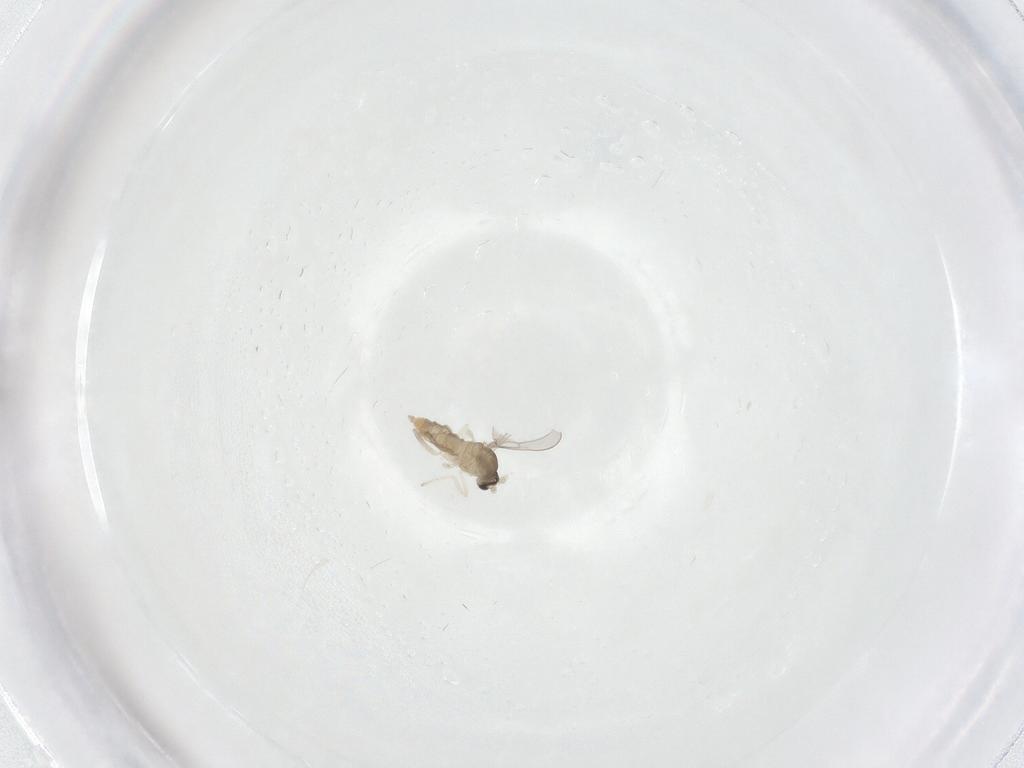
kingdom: Animalia
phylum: Arthropoda
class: Insecta
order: Diptera
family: Cecidomyiidae
